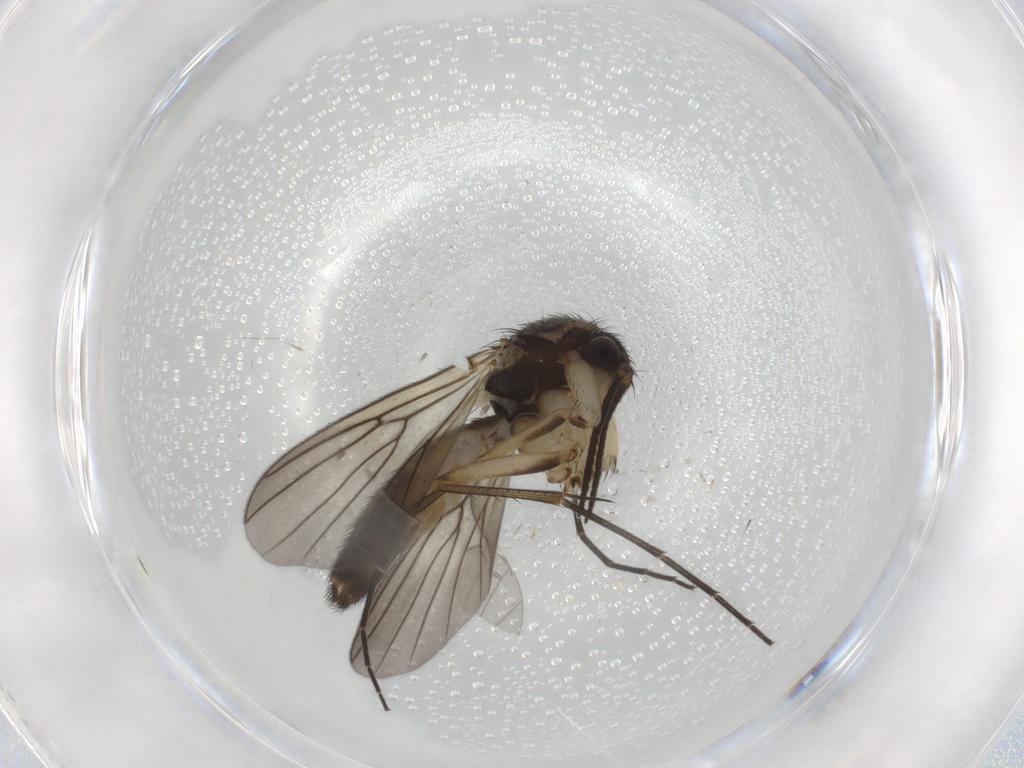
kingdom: Animalia
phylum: Arthropoda
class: Insecta
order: Diptera
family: Mycetophilidae
